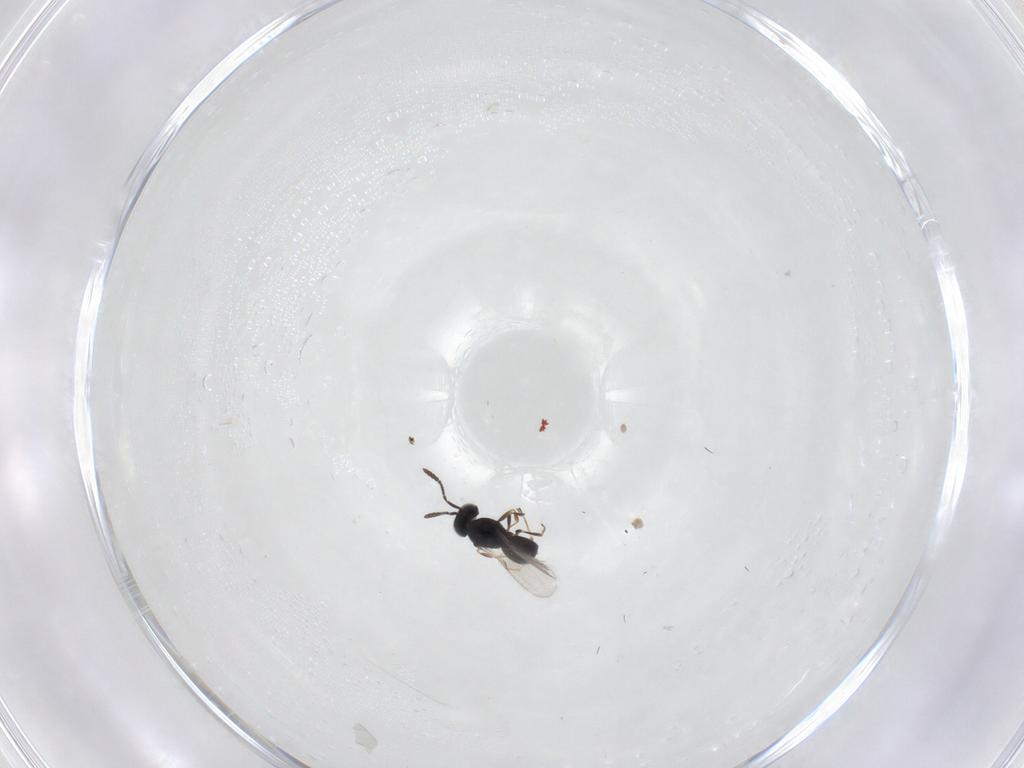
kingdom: Animalia
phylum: Arthropoda
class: Insecta
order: Hymenoptera
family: Scelionidae
